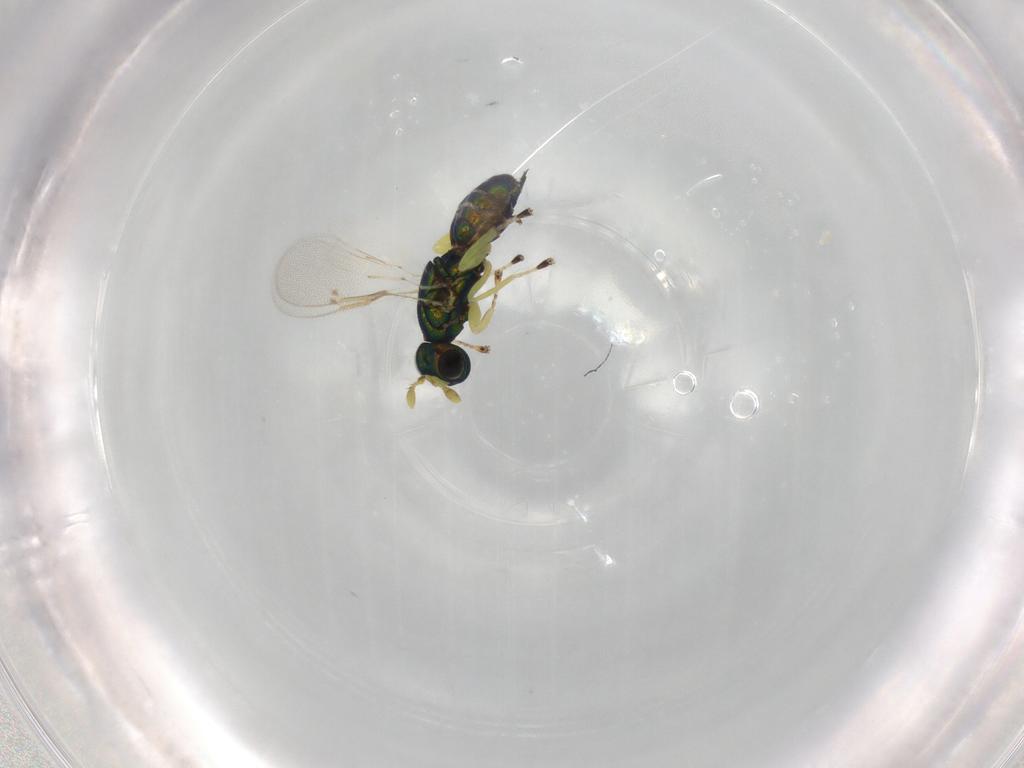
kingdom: Animalia
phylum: Arthropoda
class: Insecta
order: Hymenoptera
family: Eulophidae
